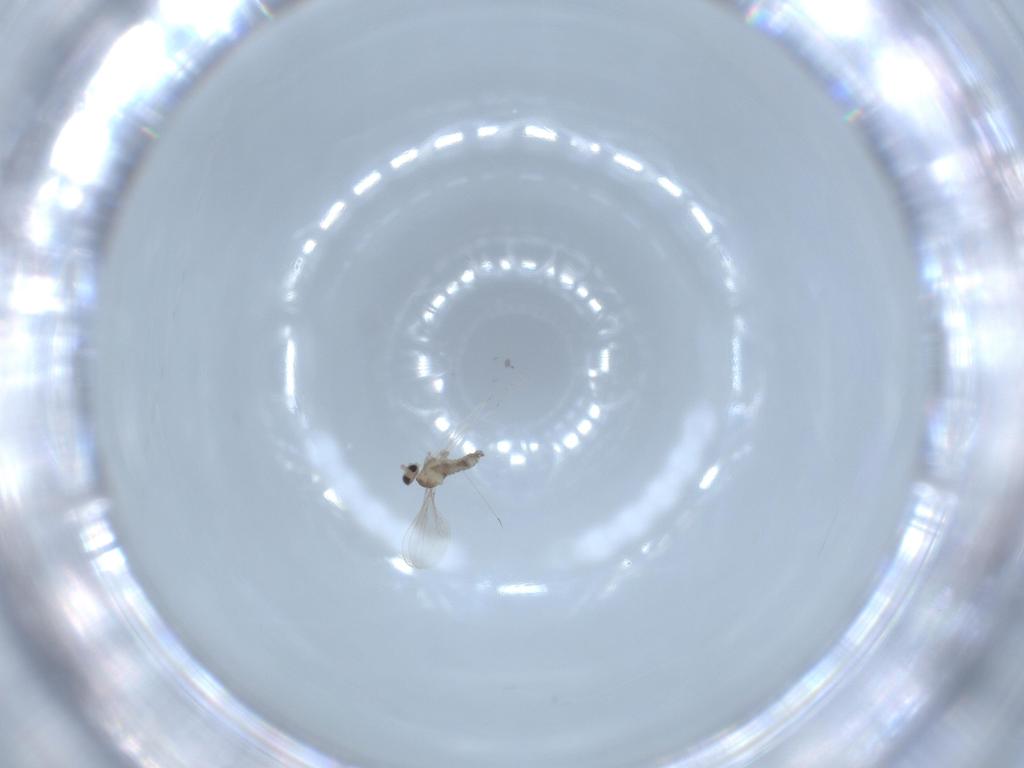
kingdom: Animalia
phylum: Arthropoda
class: Insecta
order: Diptera
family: Cecidomyiidae
